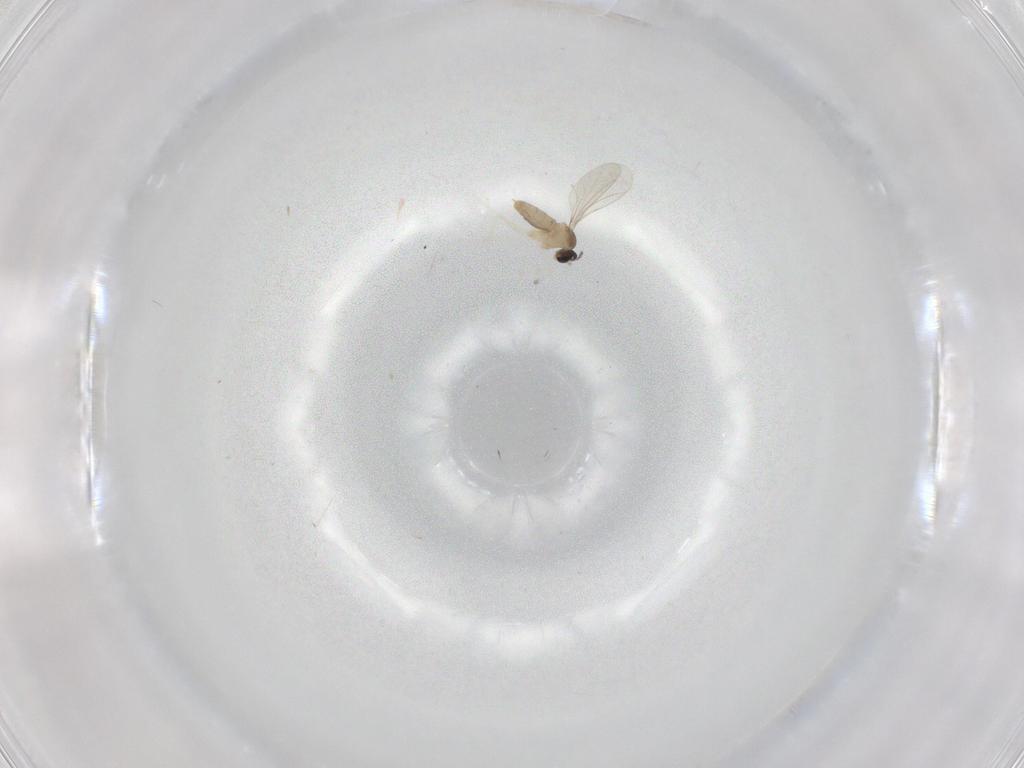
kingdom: Animalia
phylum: Arthropoda
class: Insecta
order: Diptera
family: Cecidomyiidae
